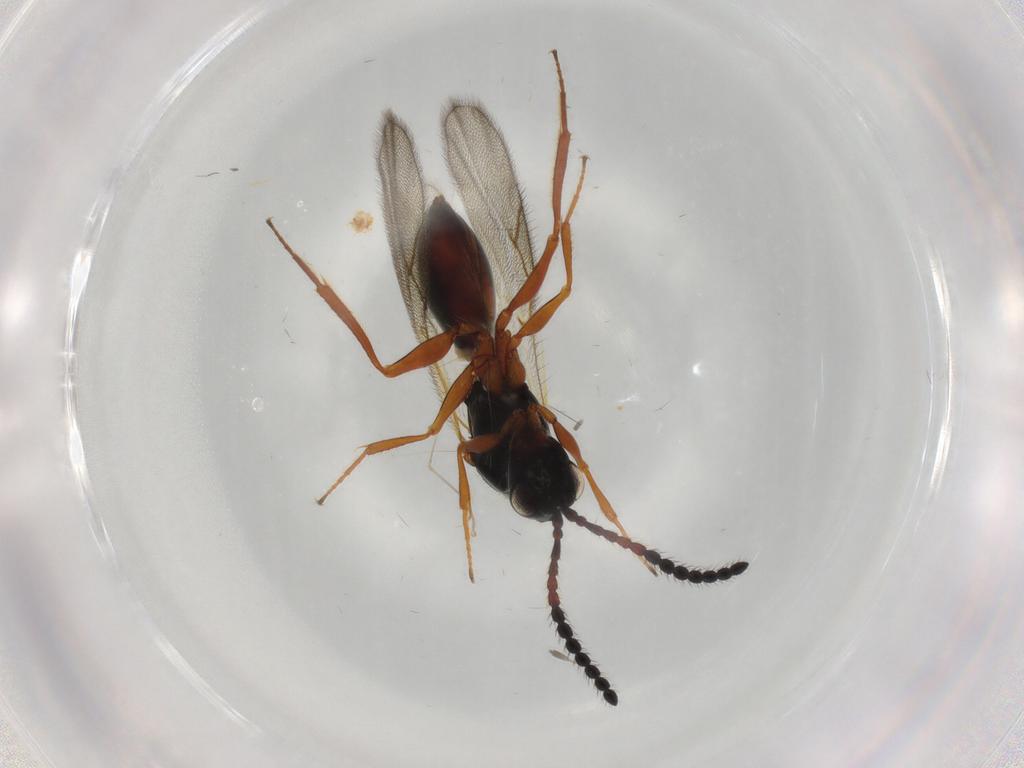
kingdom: Animalia
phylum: Arthropoda
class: Insecta
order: Hymenoptera
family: Figitidae
